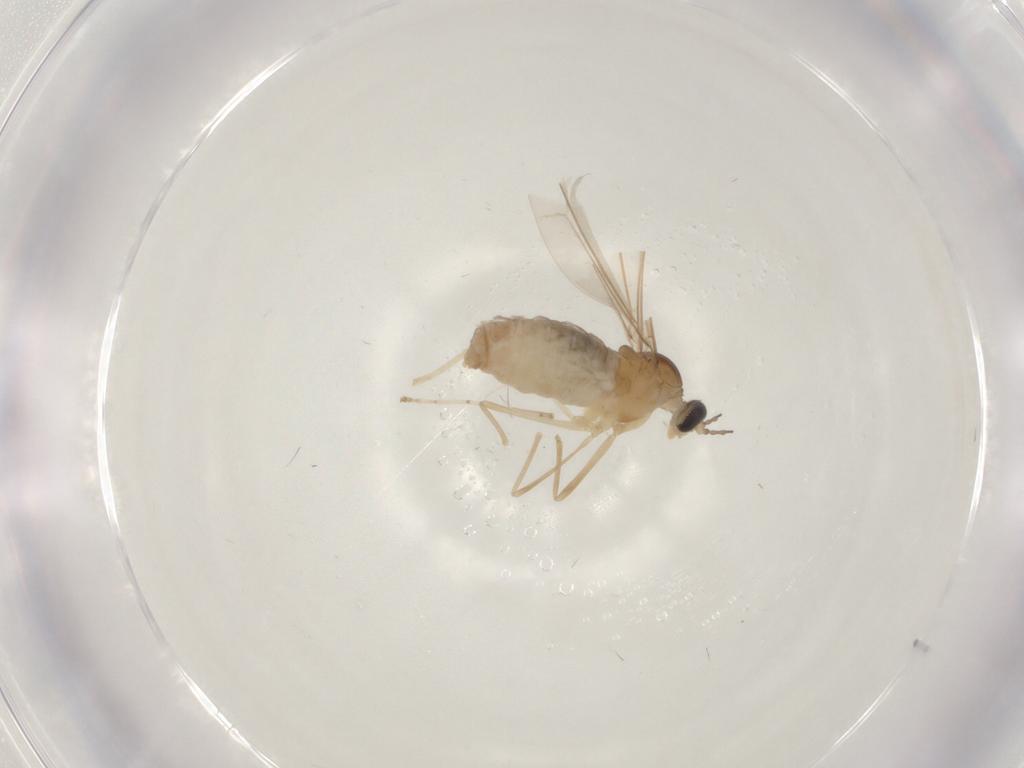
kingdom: Animalia
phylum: Arthropoda
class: Insecta
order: Diptera
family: Cecidomyiidae
